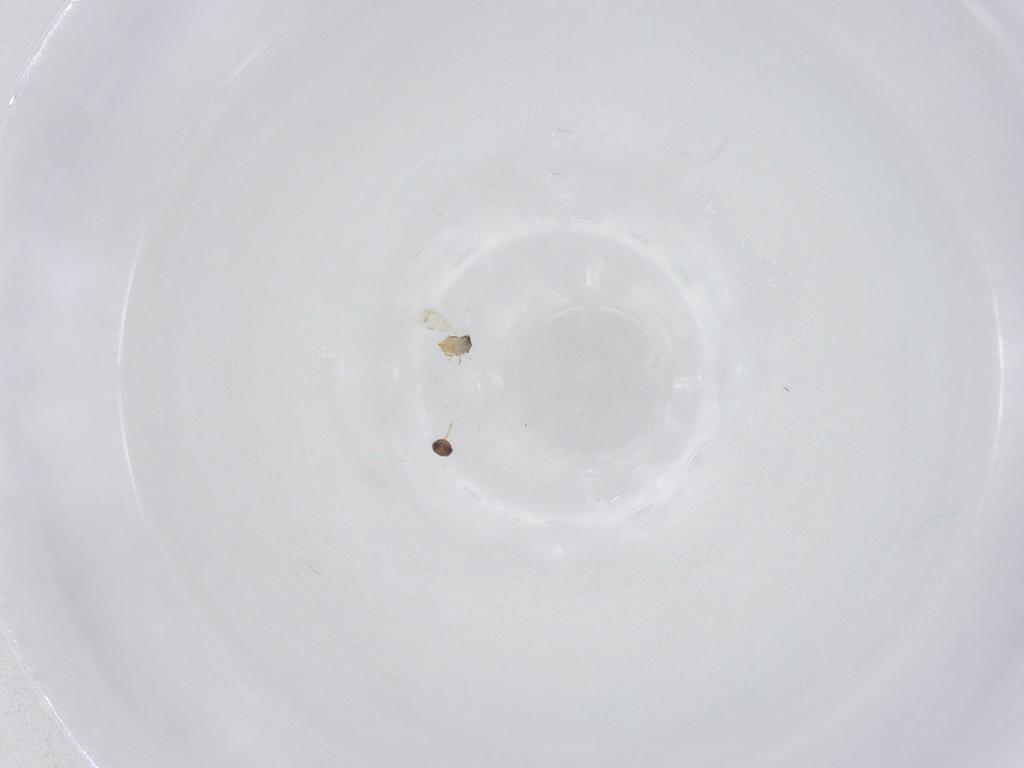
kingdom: Animalia
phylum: Arthropoda
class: Insecta
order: Hymenoptera
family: Aphelinidae
